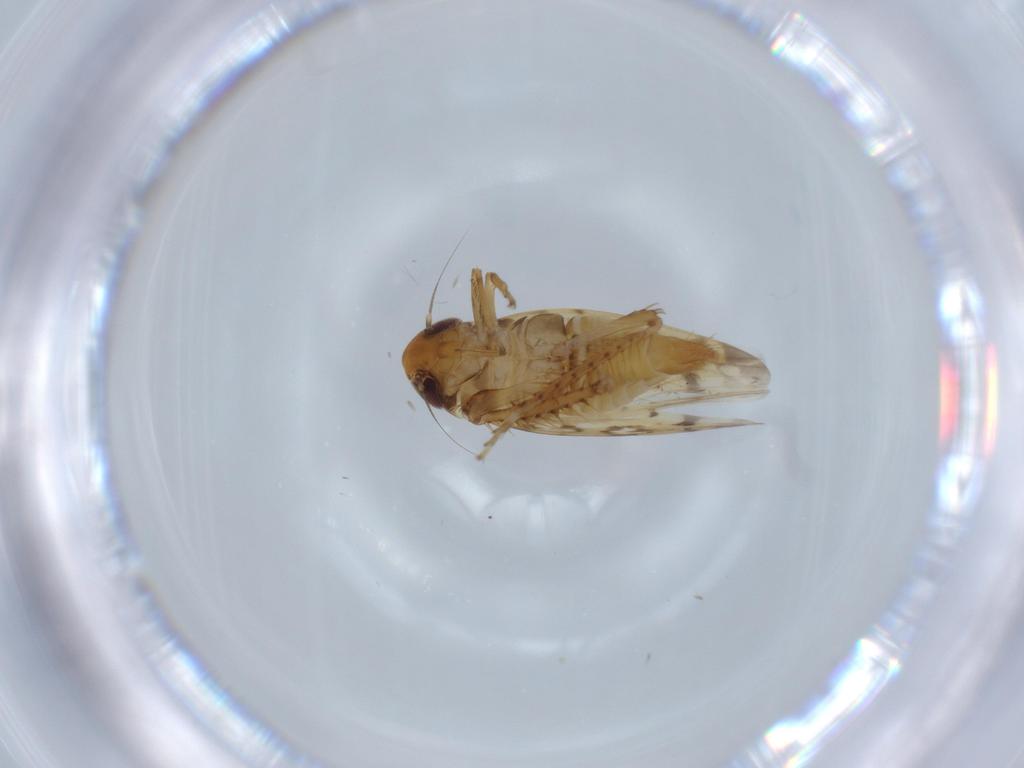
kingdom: Animalia
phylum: Arthropoda
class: Insecta
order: Hemiptera
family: Cicadellidae
